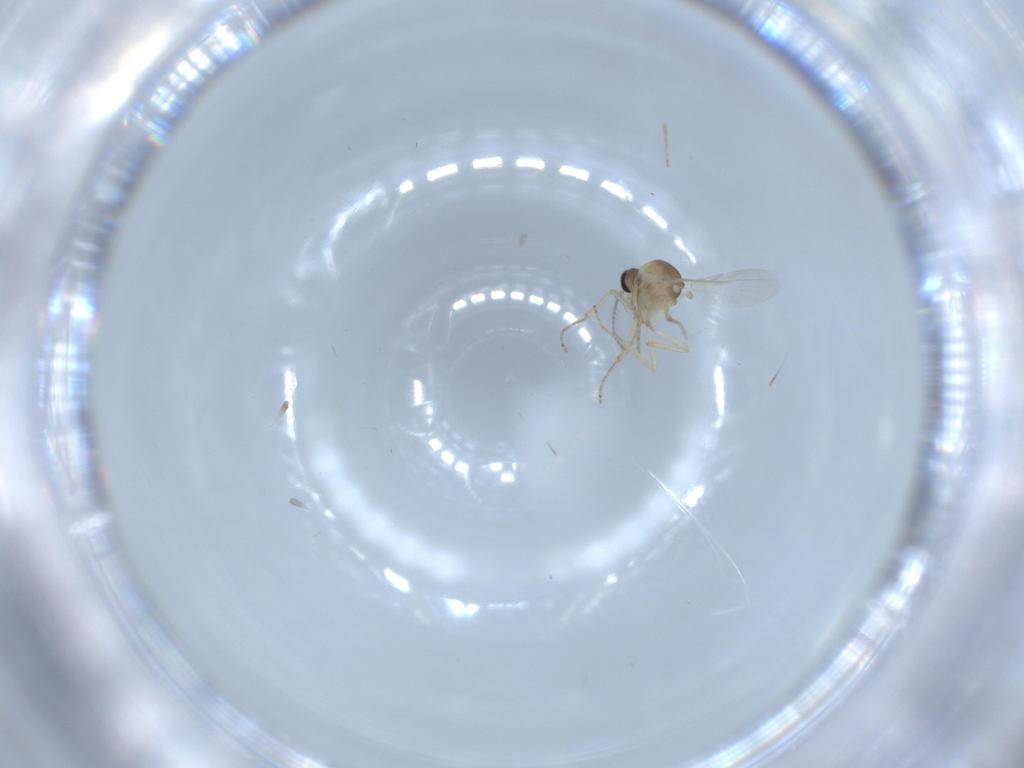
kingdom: Animalia
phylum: Arthropoda
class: Insecta
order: Diptera
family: Ceratopogonidae
